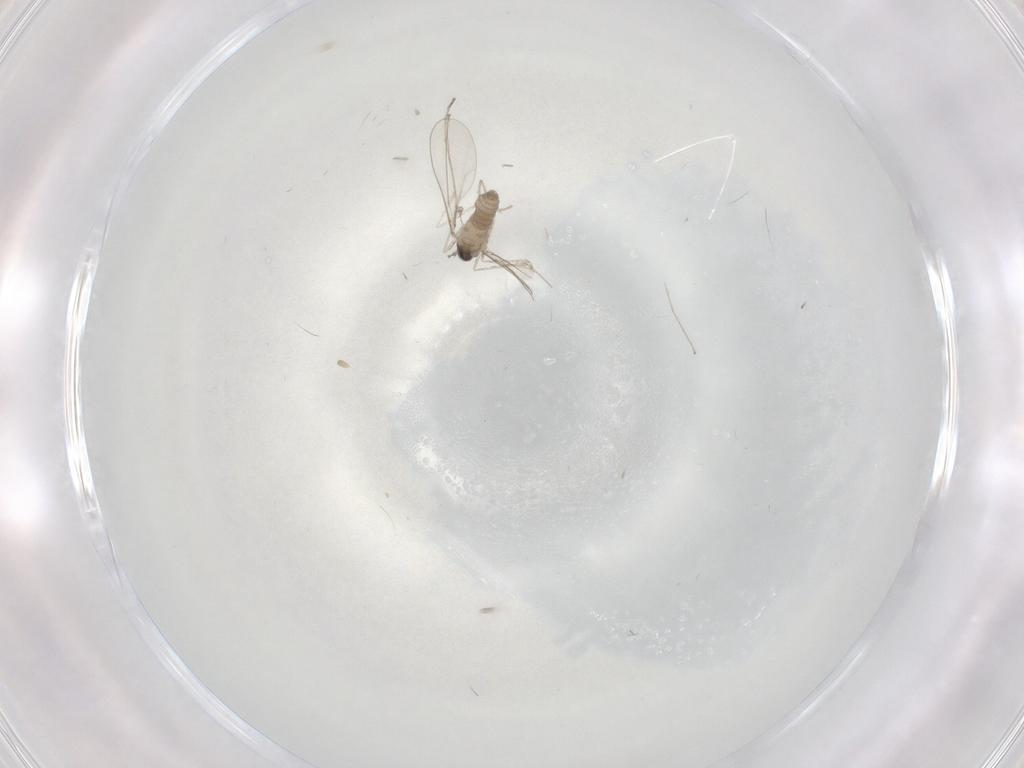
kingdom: Animalia
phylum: Arthropoda
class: Insecta
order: Diptera
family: Cecidomyiidae
